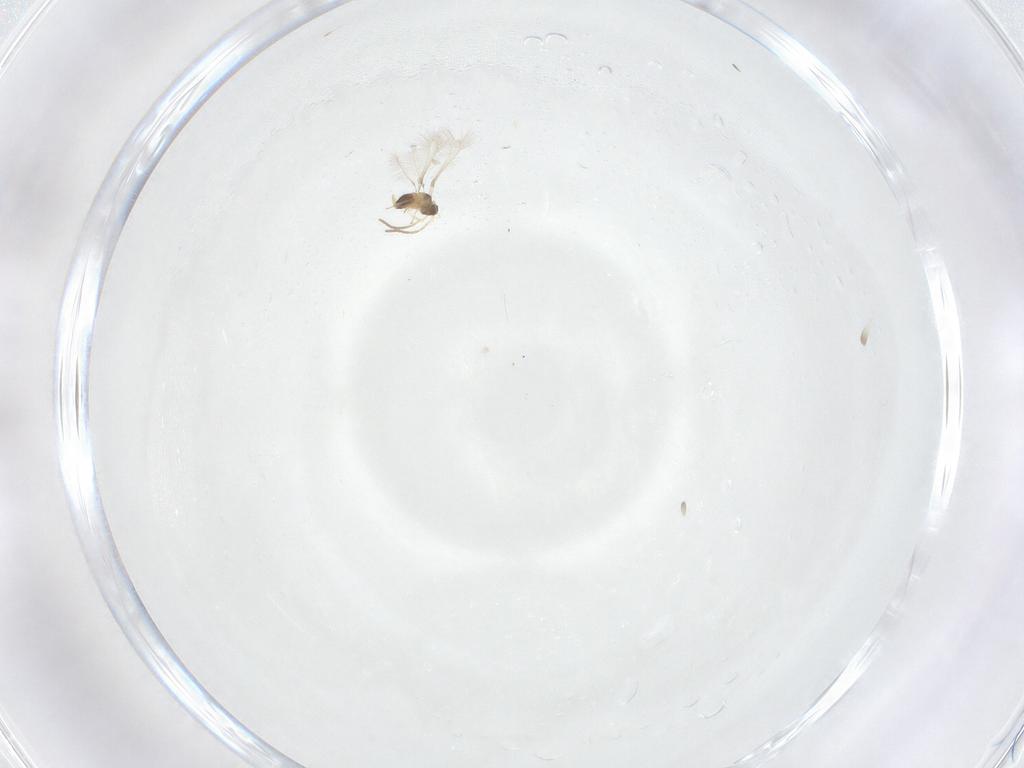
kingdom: Animalia
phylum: Arthropoda
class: Insecta
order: Hymenoptera
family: Mymaridae
